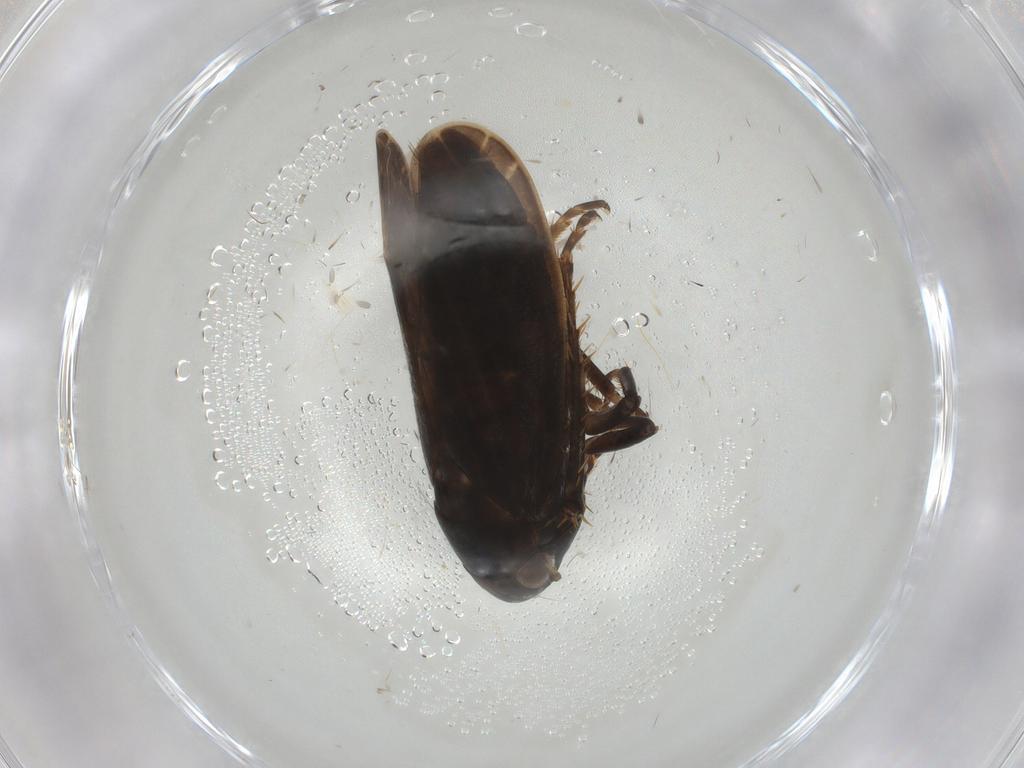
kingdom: Animalia
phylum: Arthropoda
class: Insecta
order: Hemiptera
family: Cicadellidae
